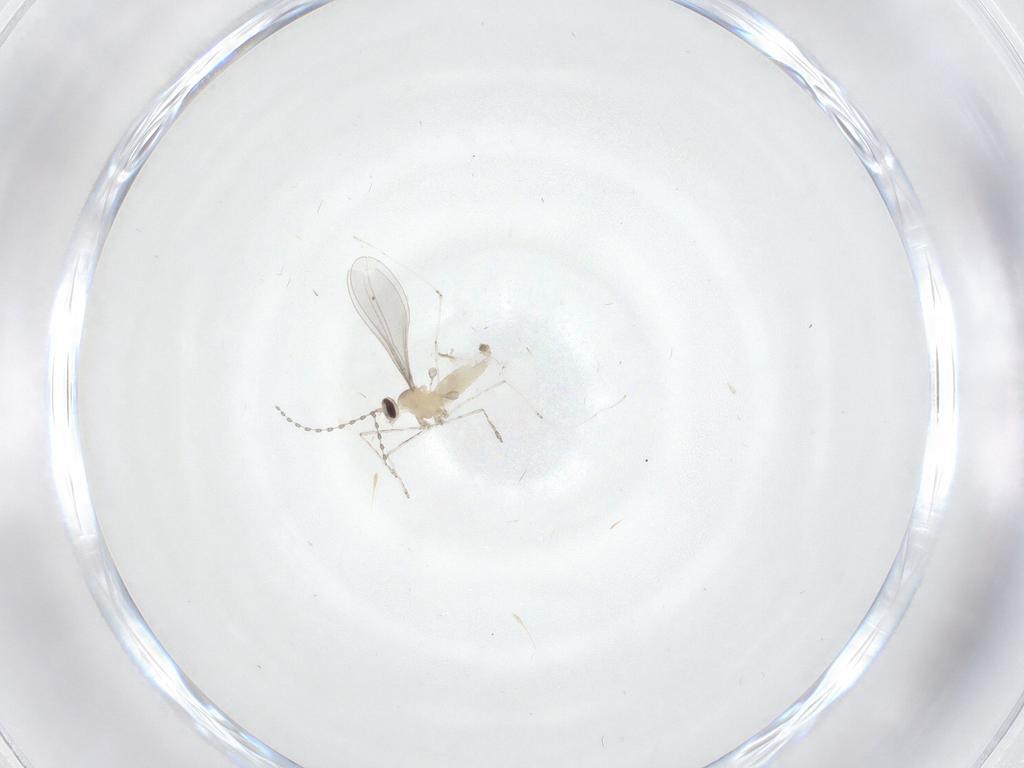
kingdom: Animalia
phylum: Arthropoda
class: Insecta
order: Diptera
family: Cecidomyiidae
